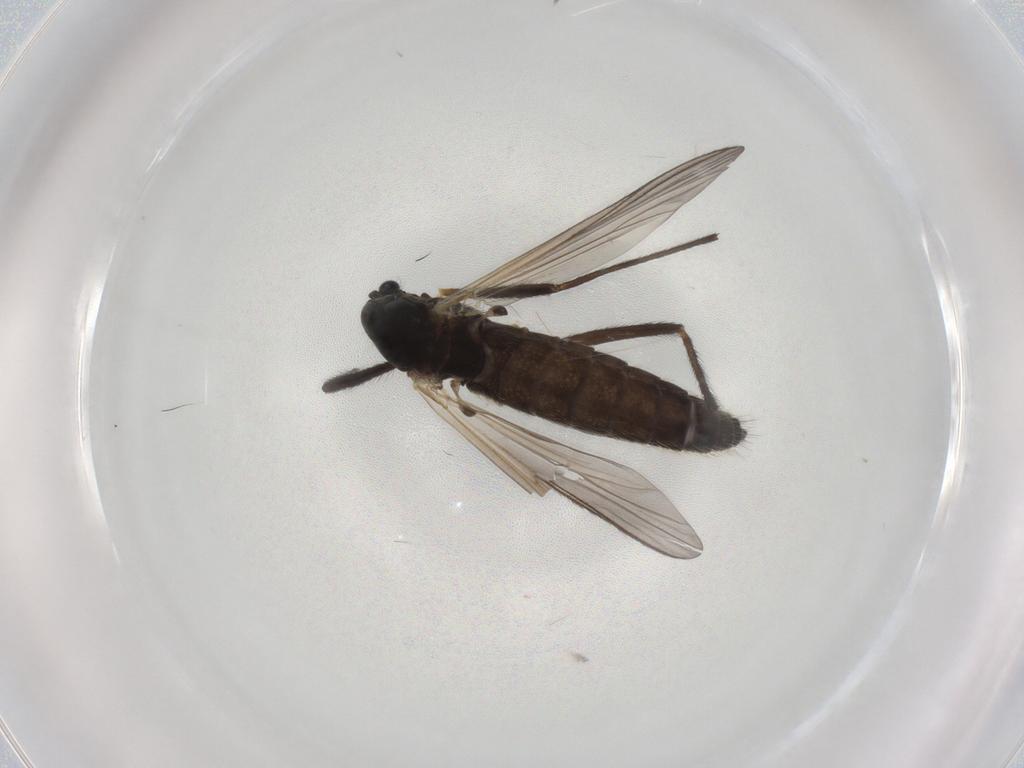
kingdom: Animalia
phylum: Arthropoda
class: Insecta
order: Diptera
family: Chironomidae
